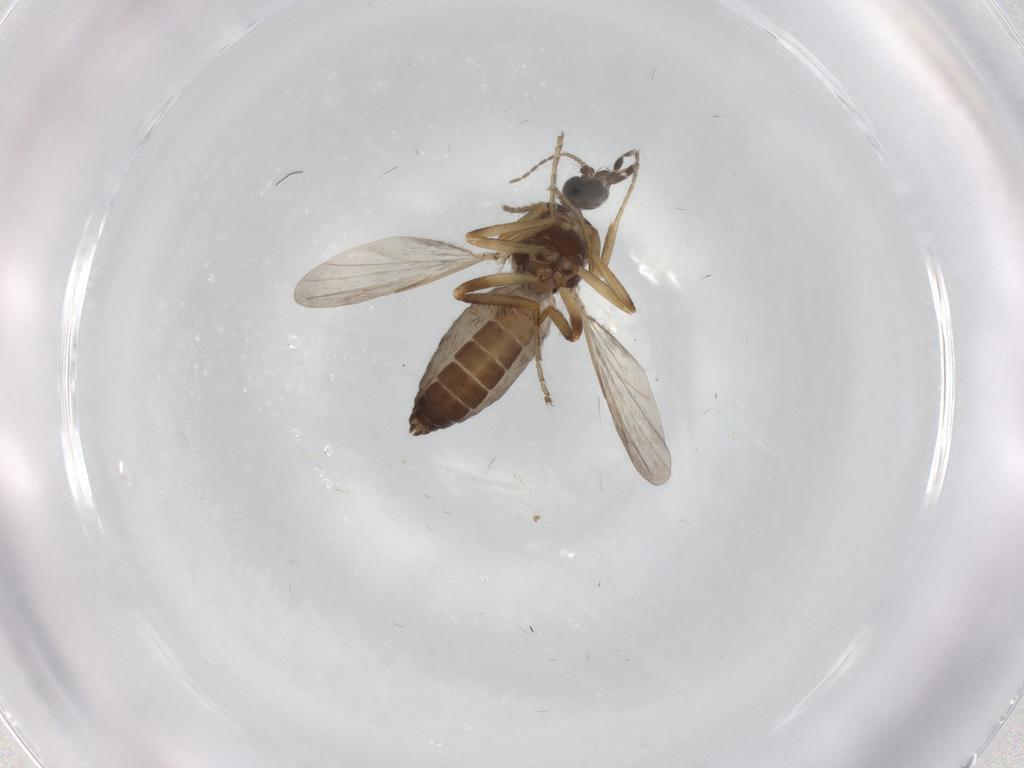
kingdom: Animalia
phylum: Arthropoda
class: Insecta
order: Diptera
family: Ceratopogonidae
